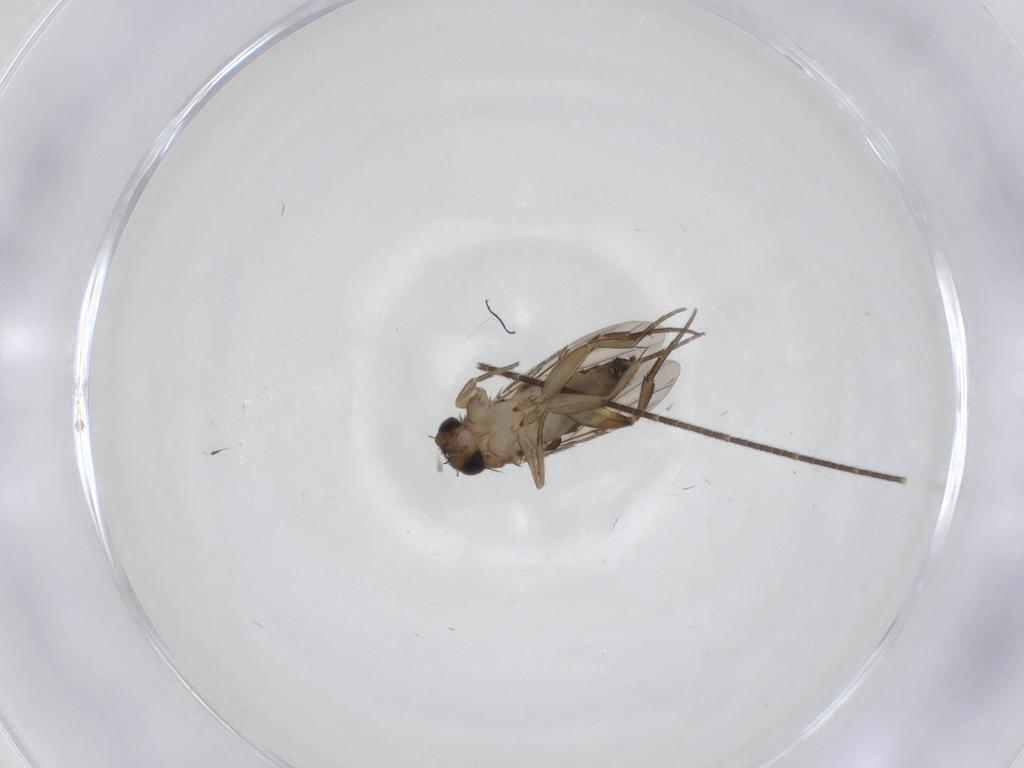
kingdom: Animalia
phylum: Arthropoda
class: Insecta
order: Diptera
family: Phoridae
